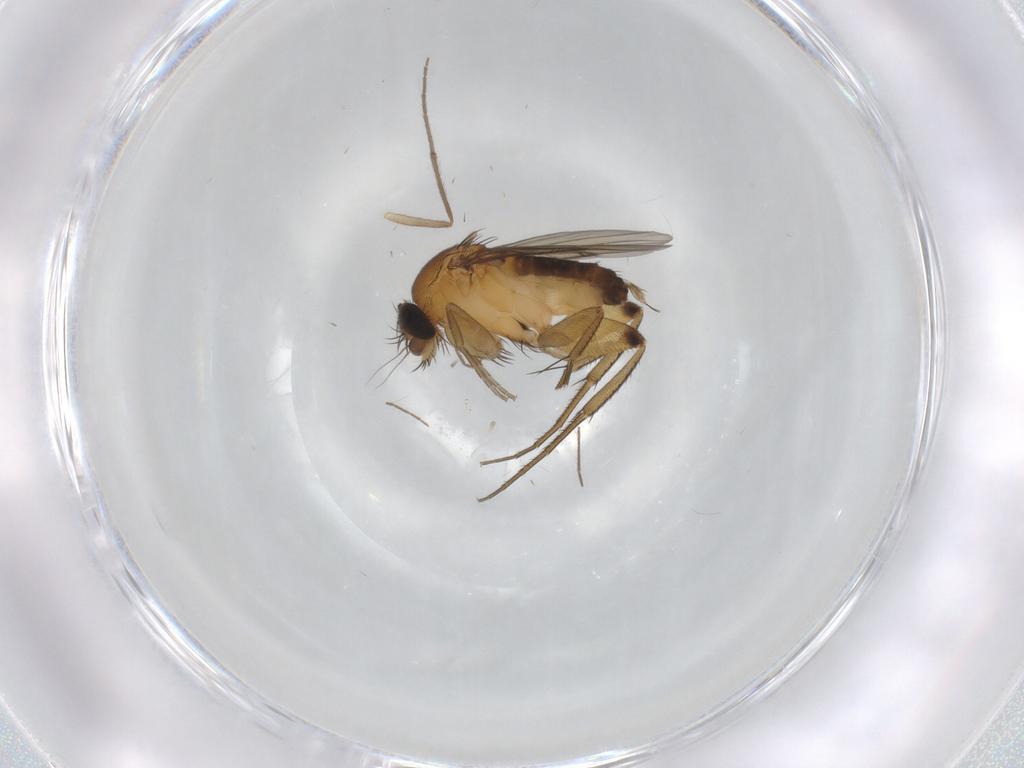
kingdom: Animalia
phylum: Arthropoda
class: Insecta
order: Diptera
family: Phoridae
